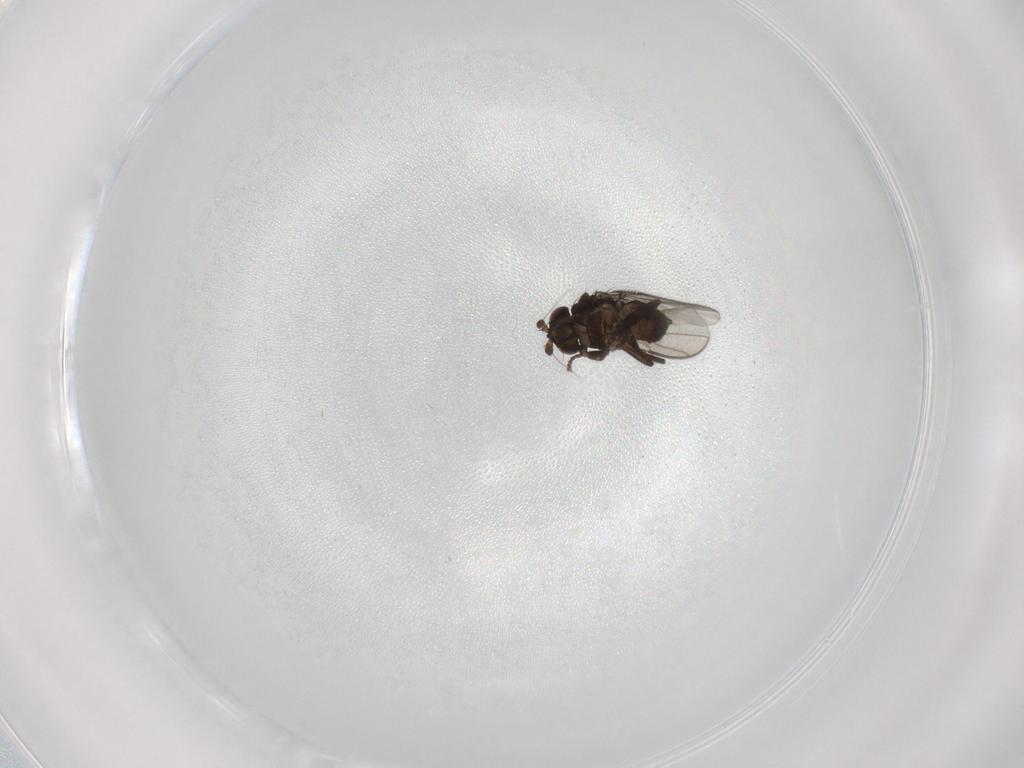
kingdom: Animalia
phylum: Arthropoda
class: Insecta
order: Diptera
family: Sphaeroceridae
